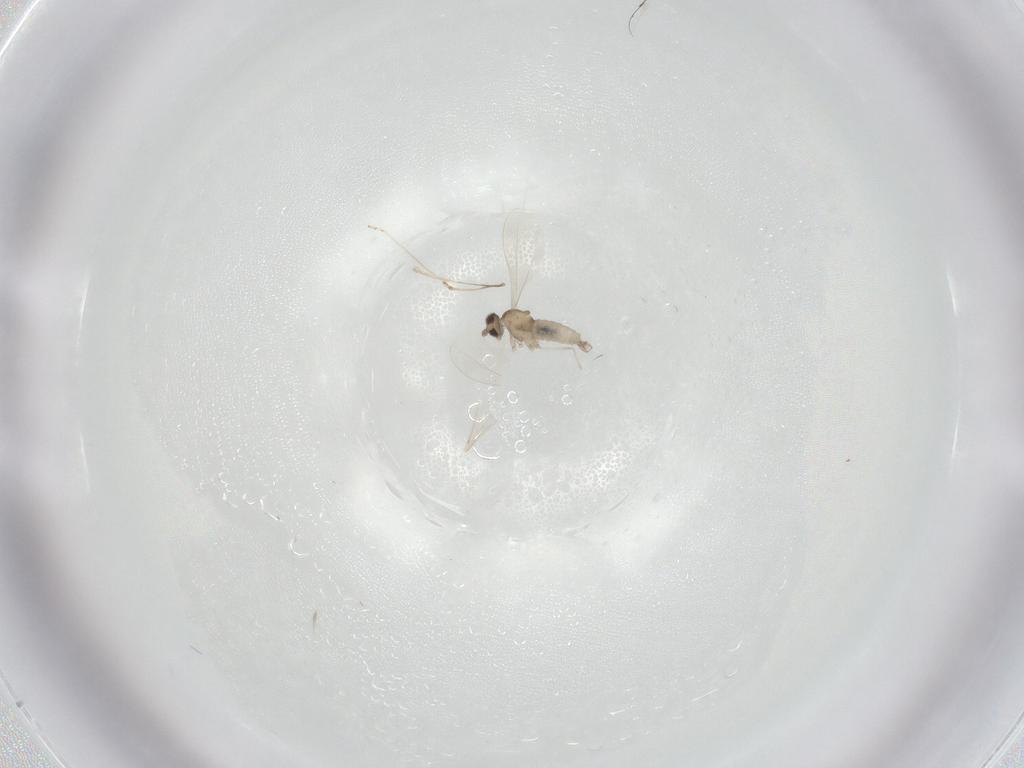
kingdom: Animalia
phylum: Arthropoda
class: Insecta
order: Diptera
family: Cecidomyiidae
